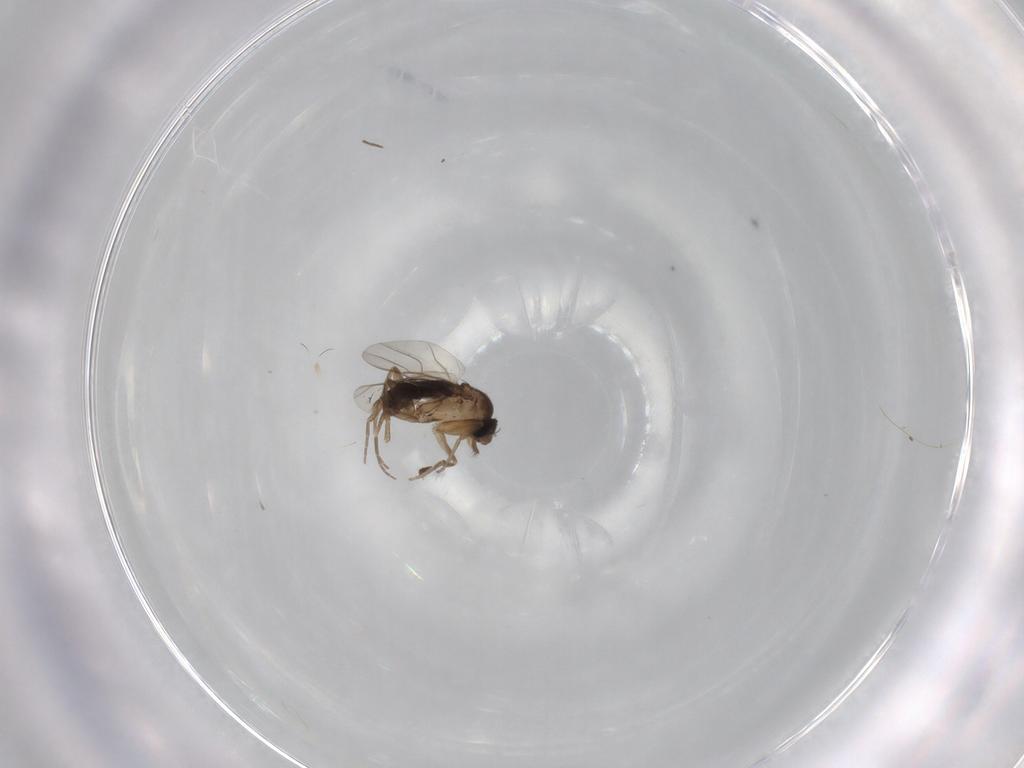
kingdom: Animalia
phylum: Arthropoda
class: Insecta
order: Diptera
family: Phoridae
